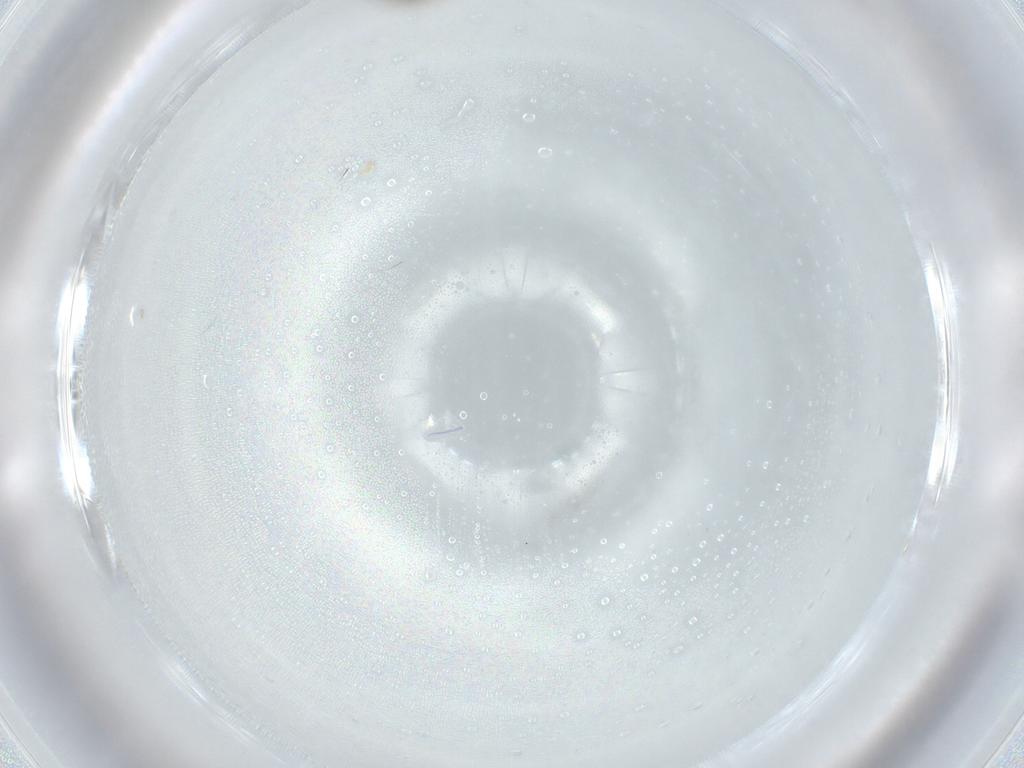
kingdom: Animalia
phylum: Arthropoda
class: Insecta
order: Diptera
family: Chironomidae
